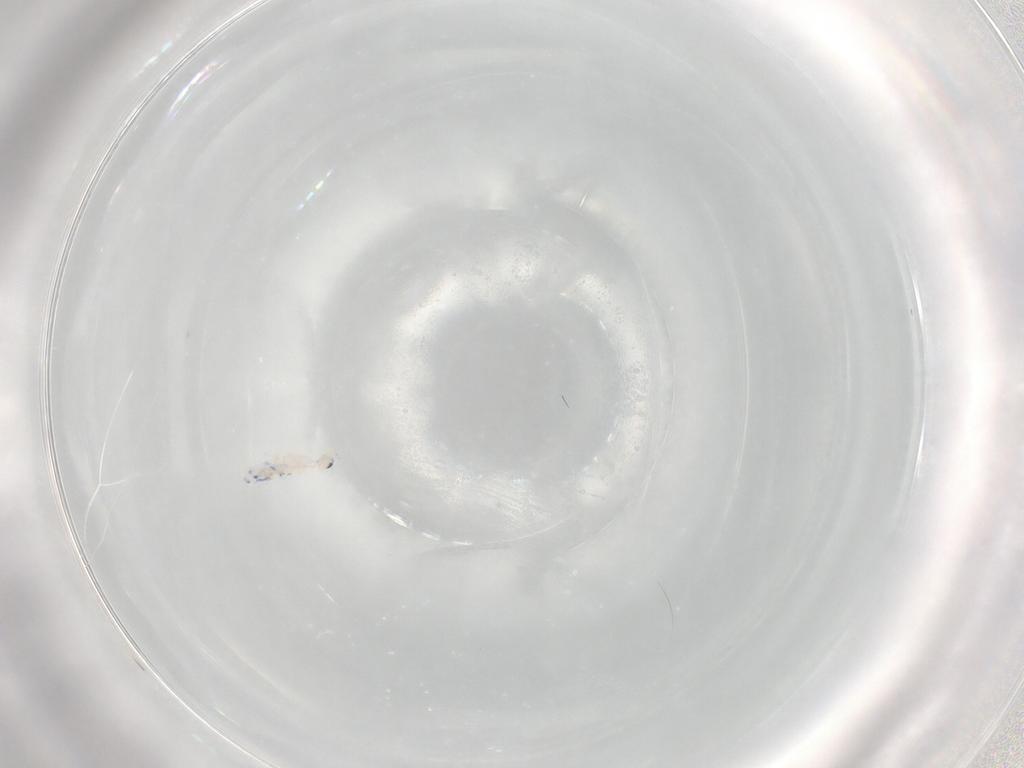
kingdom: Animalia
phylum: Arthropoda
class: Collembola
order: Entomobryomorpha
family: Entomobryidae
